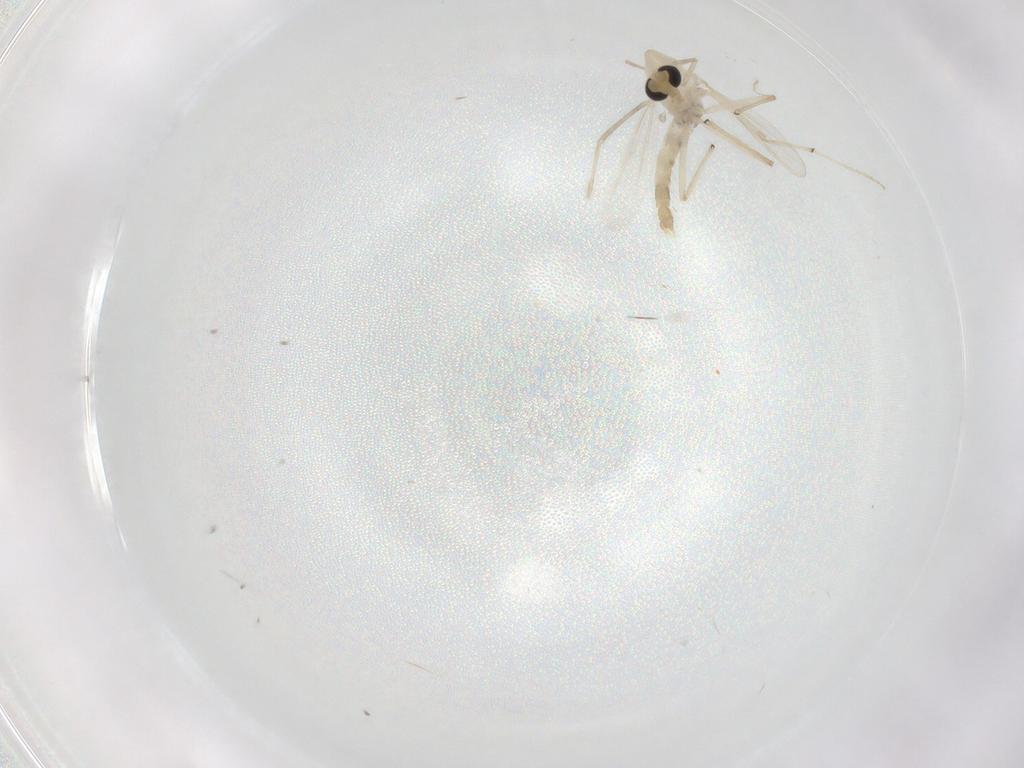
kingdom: Animalia
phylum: Arthropoda
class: Insecta
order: Diptera
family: Chironomidae
